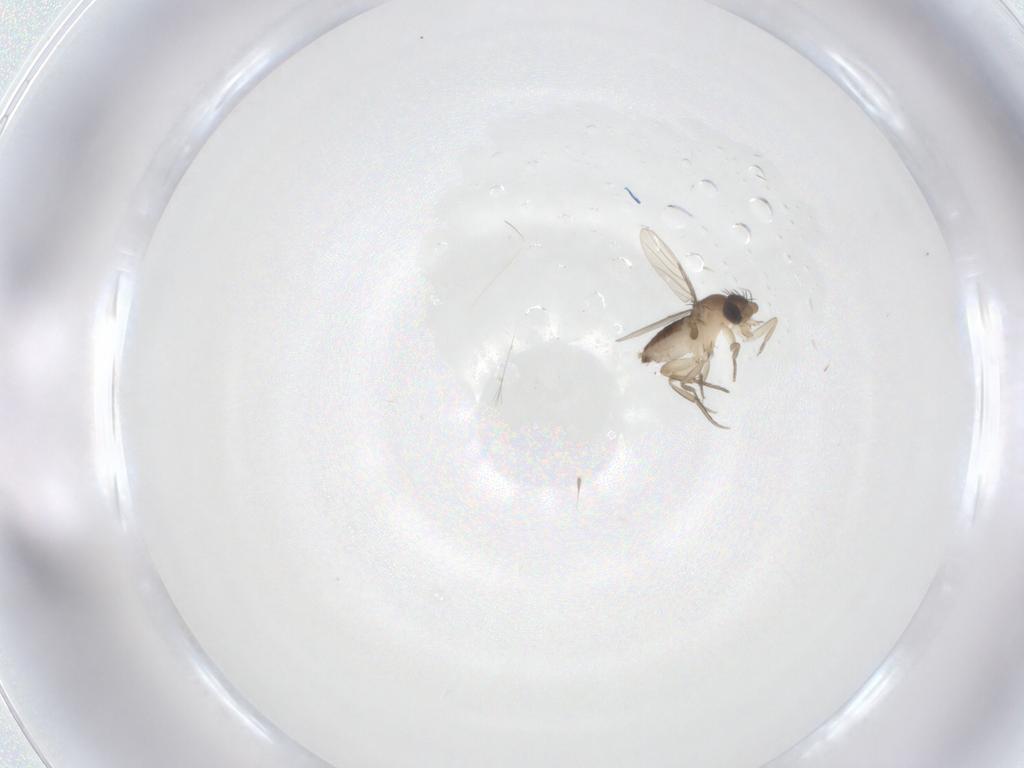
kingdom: Animalia
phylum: Arthropoda
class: Insecta
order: Diptera
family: Phoridae
